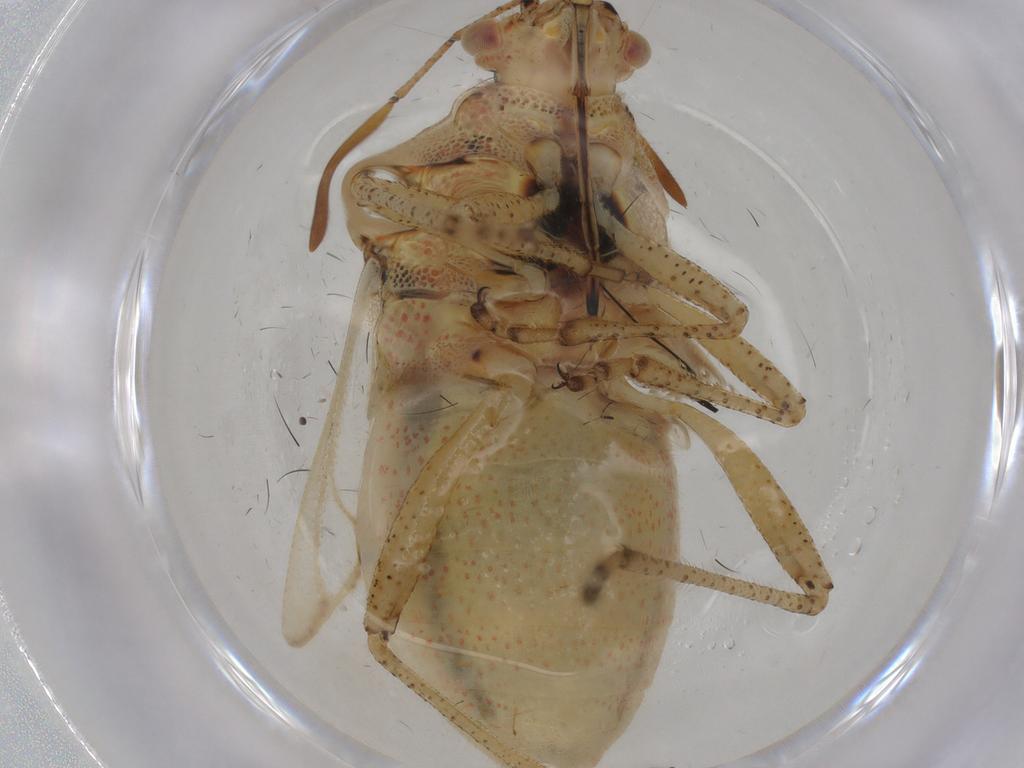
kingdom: Animalia
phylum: Arthropoda
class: Insecta
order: Hemiptera
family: Rhopalidae
